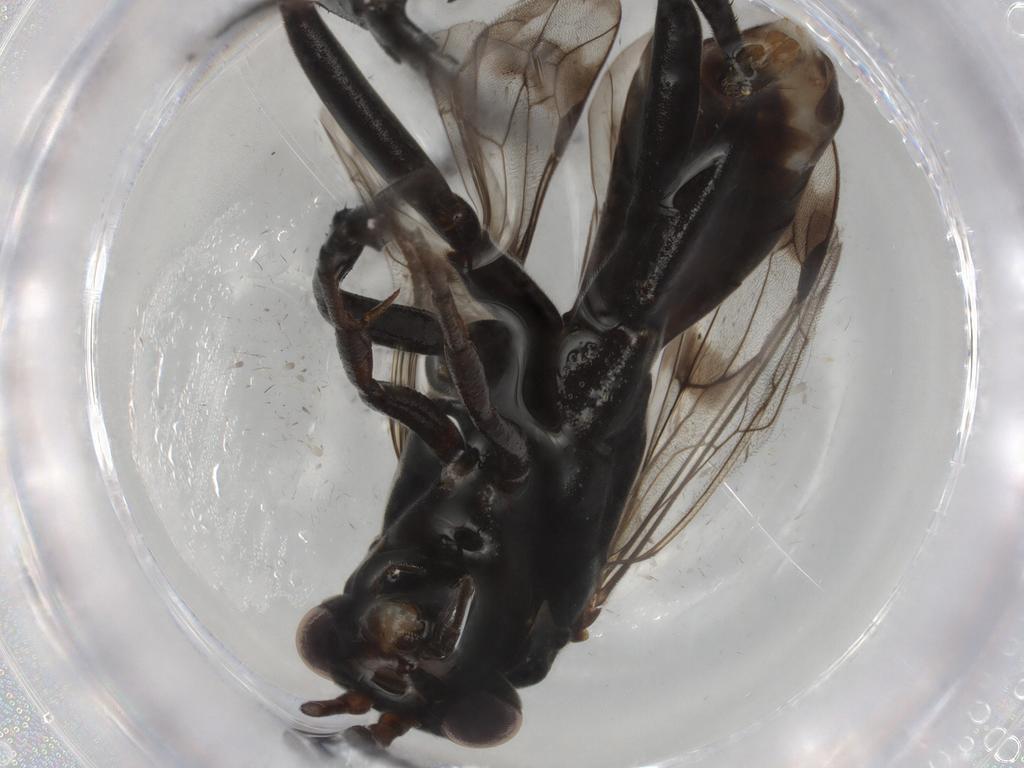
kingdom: Animalia
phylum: Arthropoda
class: Insecta
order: Hymenoptera
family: Pompilidae
